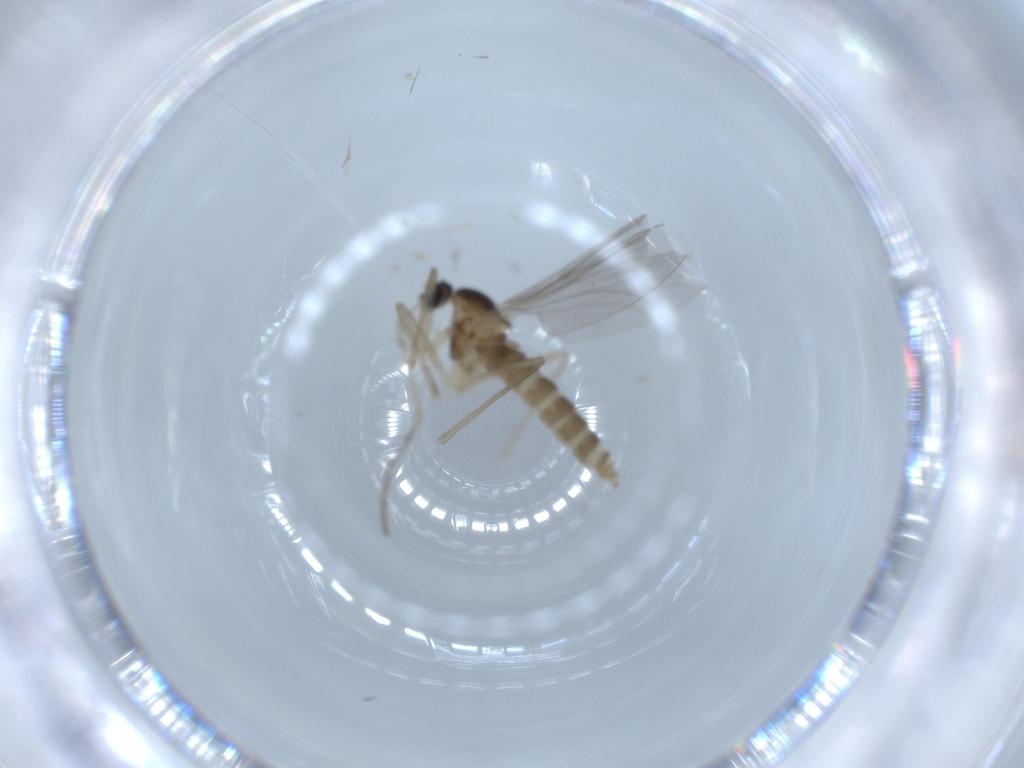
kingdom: Animalia
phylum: Arthropoda
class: Insecta
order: Diptera
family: Cecidomyiidae
